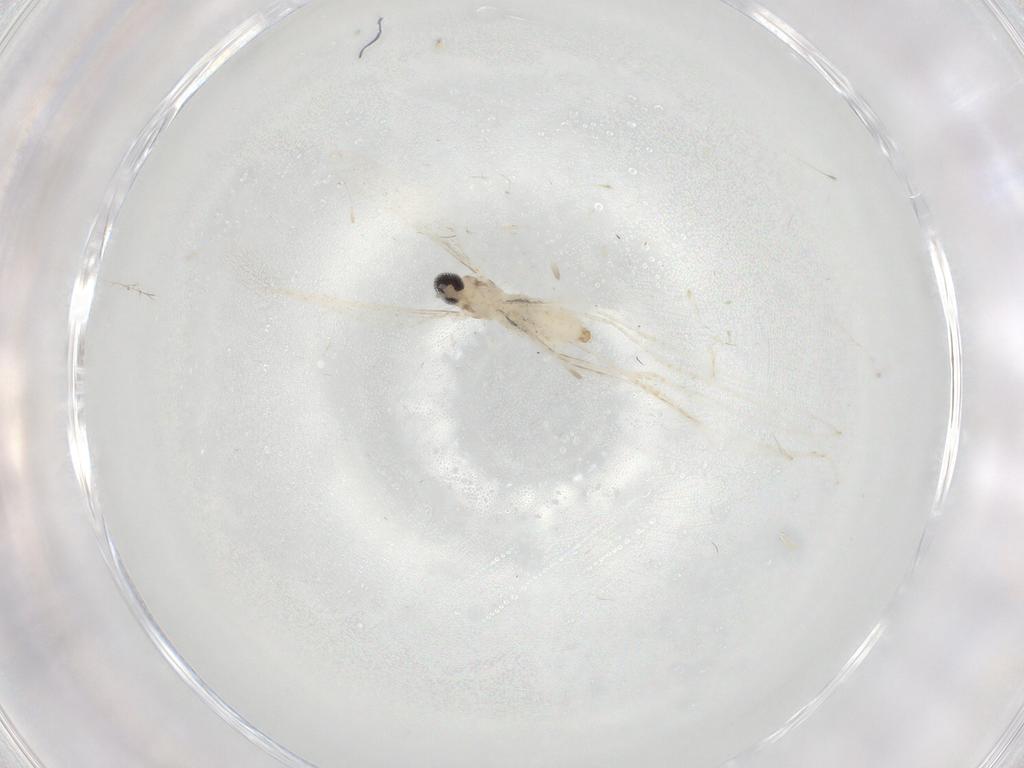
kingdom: Animalia
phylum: Arthropoda
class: Insecta
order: Diptera
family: Cecidomyiidae
